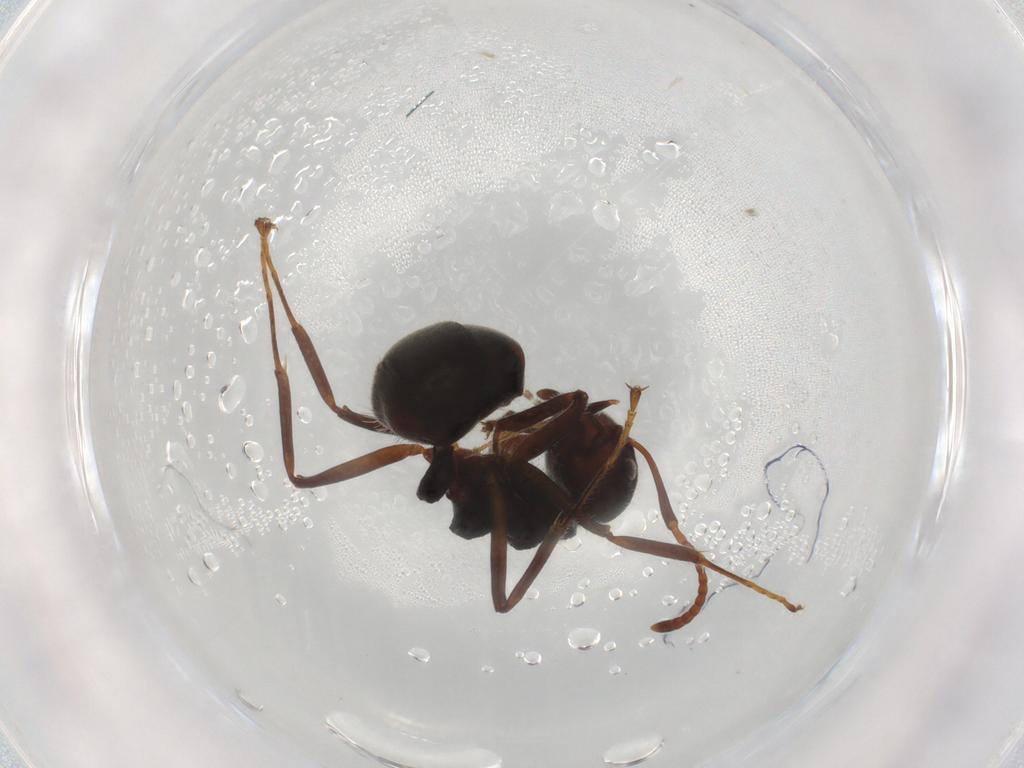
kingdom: Animalia
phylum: Arthropoda
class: Insecta
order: Hymenoptera
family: Formicidae
